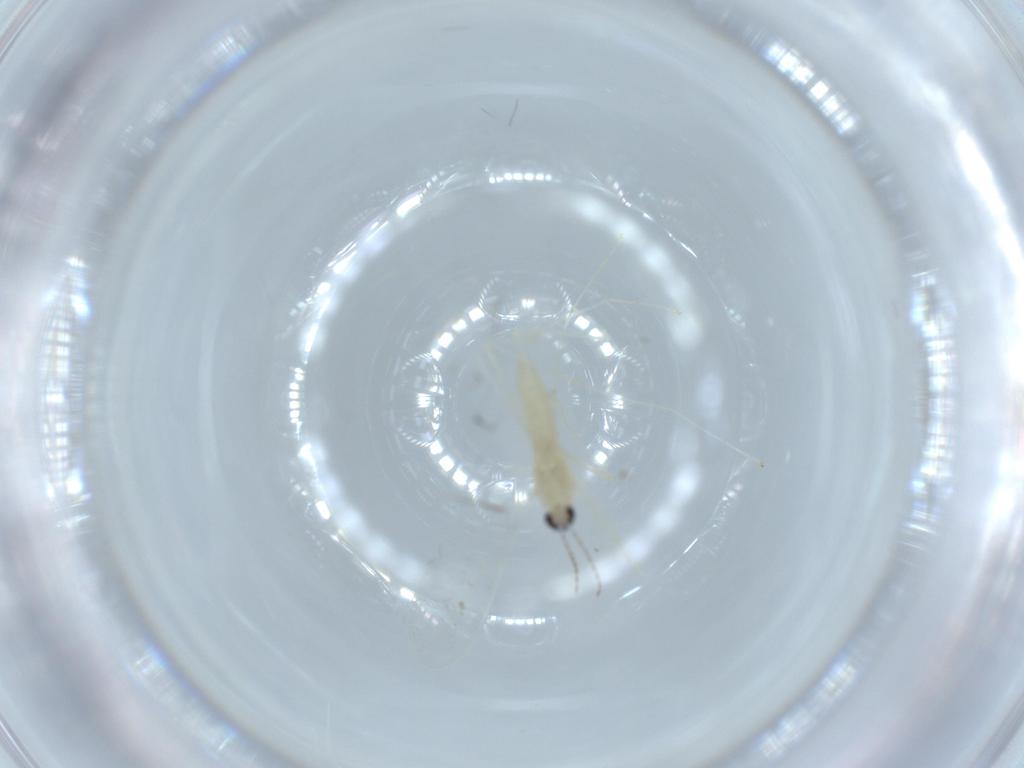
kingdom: Animalia
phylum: Arthropoda
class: Insecta
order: Diptera
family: Cecidomyiidae
